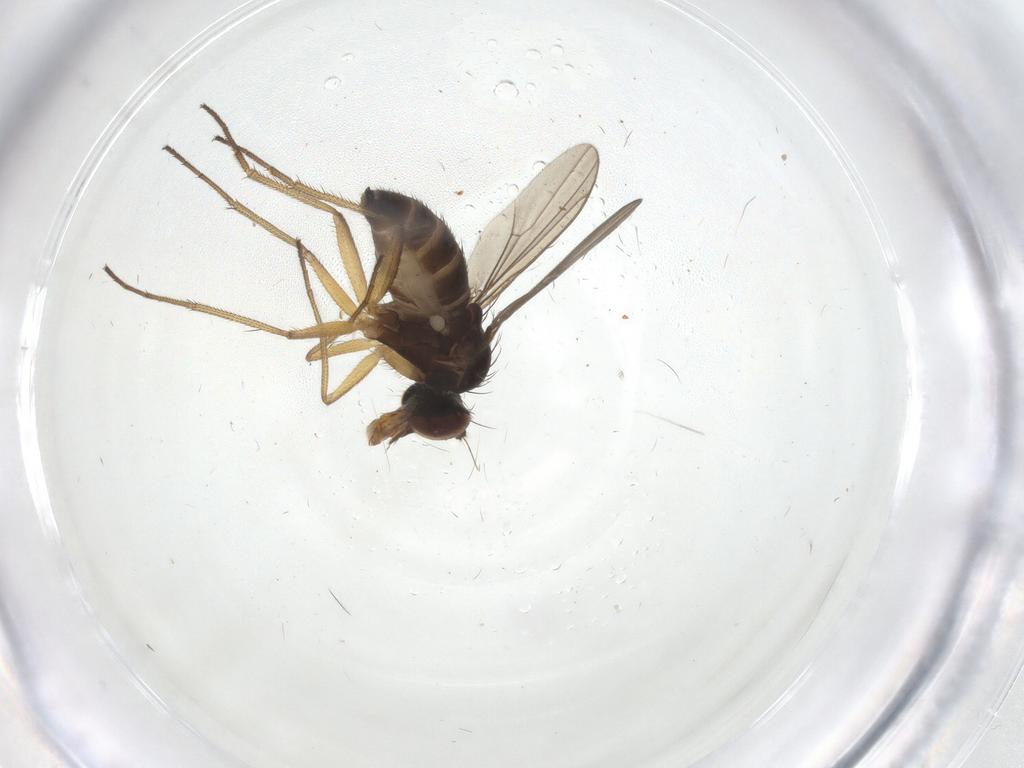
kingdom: Animalia
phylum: Arthropoda
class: Insecta
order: Diptera
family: Dolichopodidae
